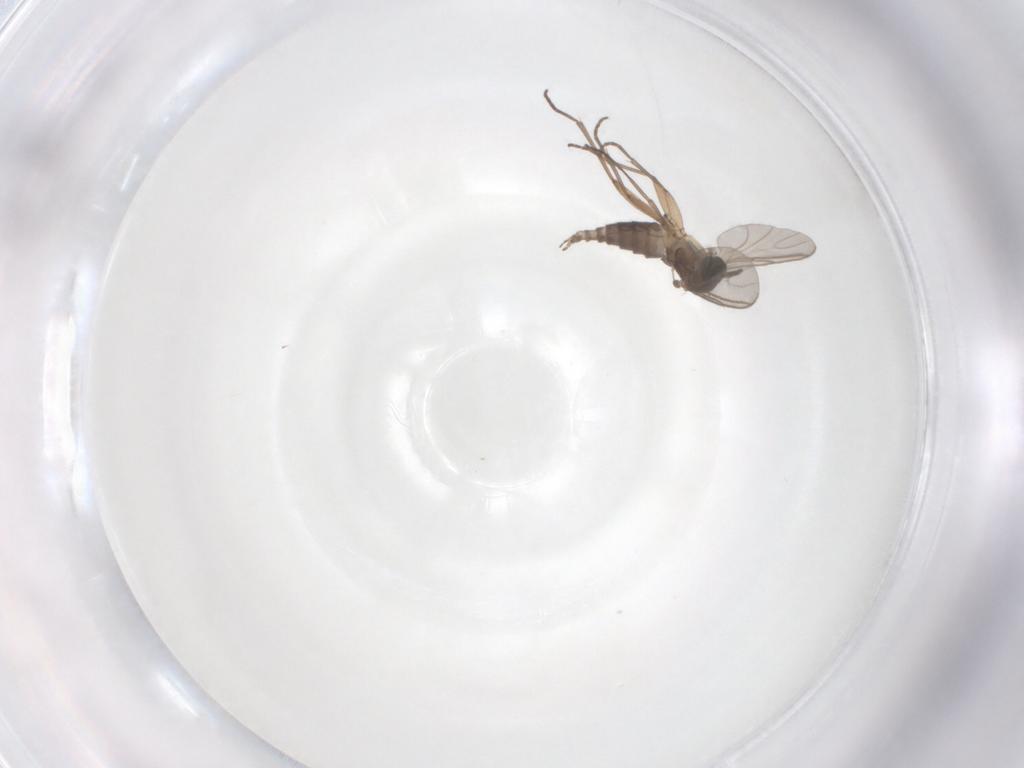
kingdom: Animalia
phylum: Arthropoda
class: Insecta
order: Diptera
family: Sciaridae
